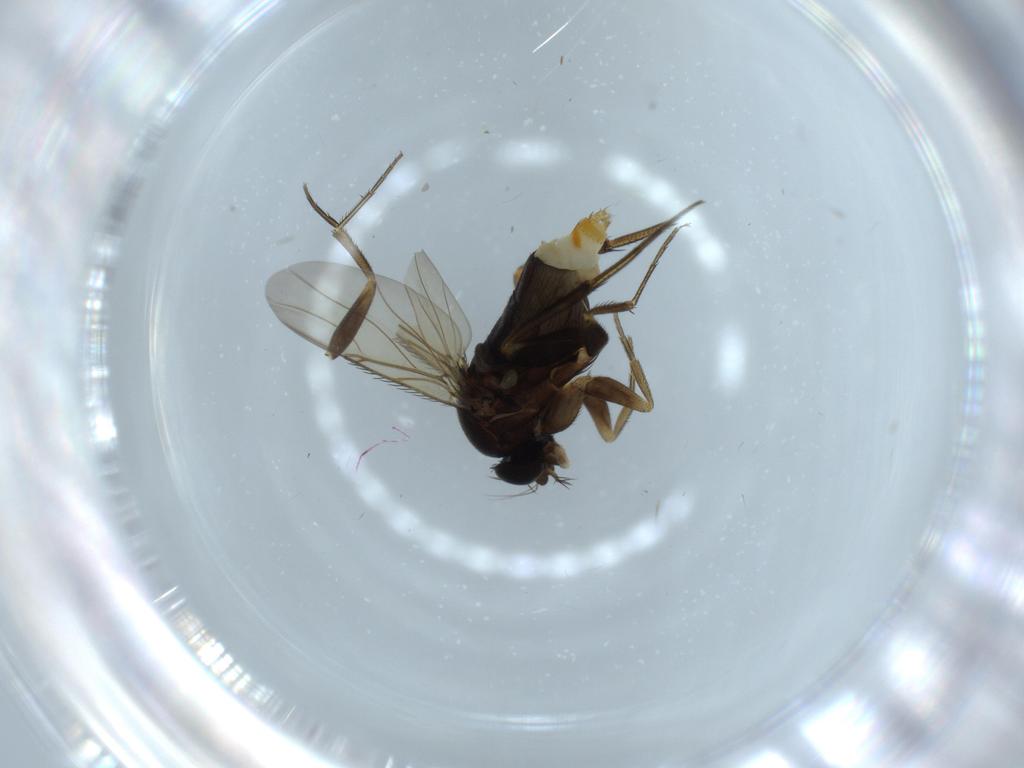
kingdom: Animalia
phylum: Arthropoda
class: Insecta
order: Diptera
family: Phoridae
